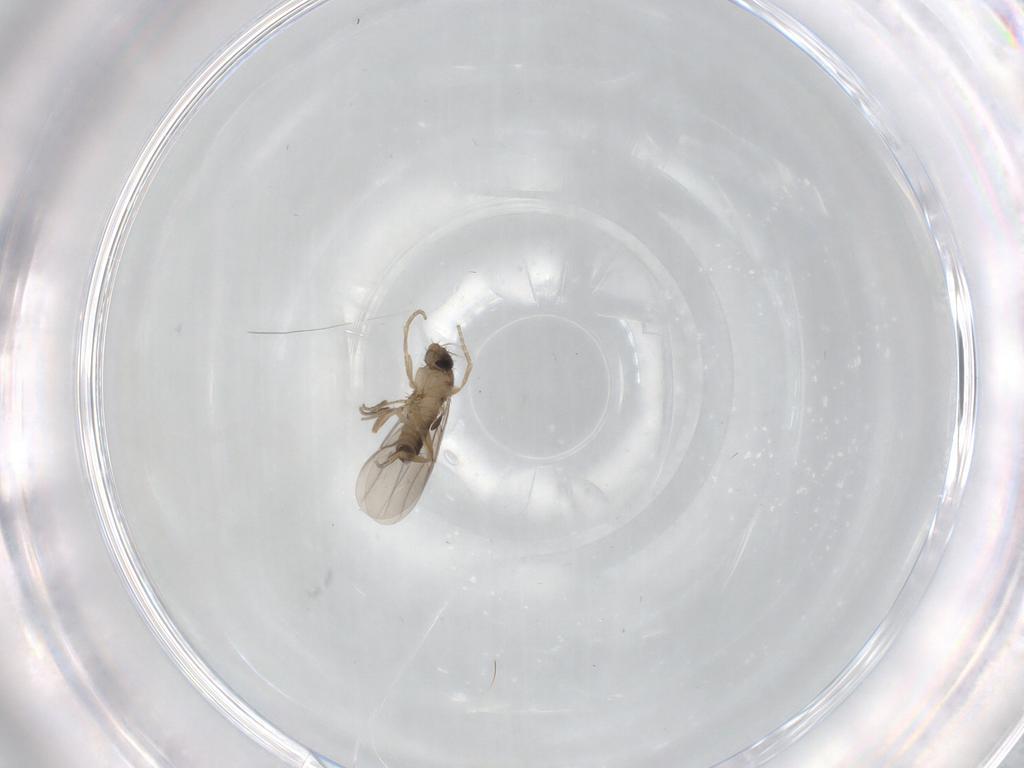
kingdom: Animalia
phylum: Arthropoda
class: Insecta
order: Diptera
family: Phoridae
